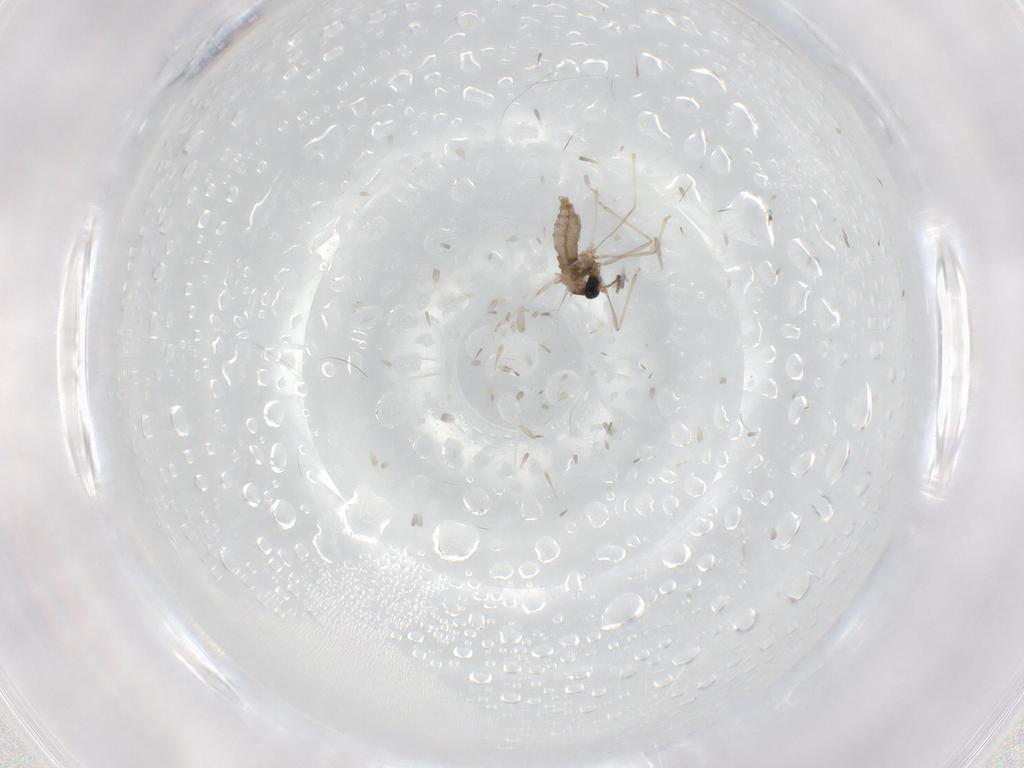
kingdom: Animalia
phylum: Arthropoda
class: Insecta
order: Diptera
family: Cecidomyiidae
